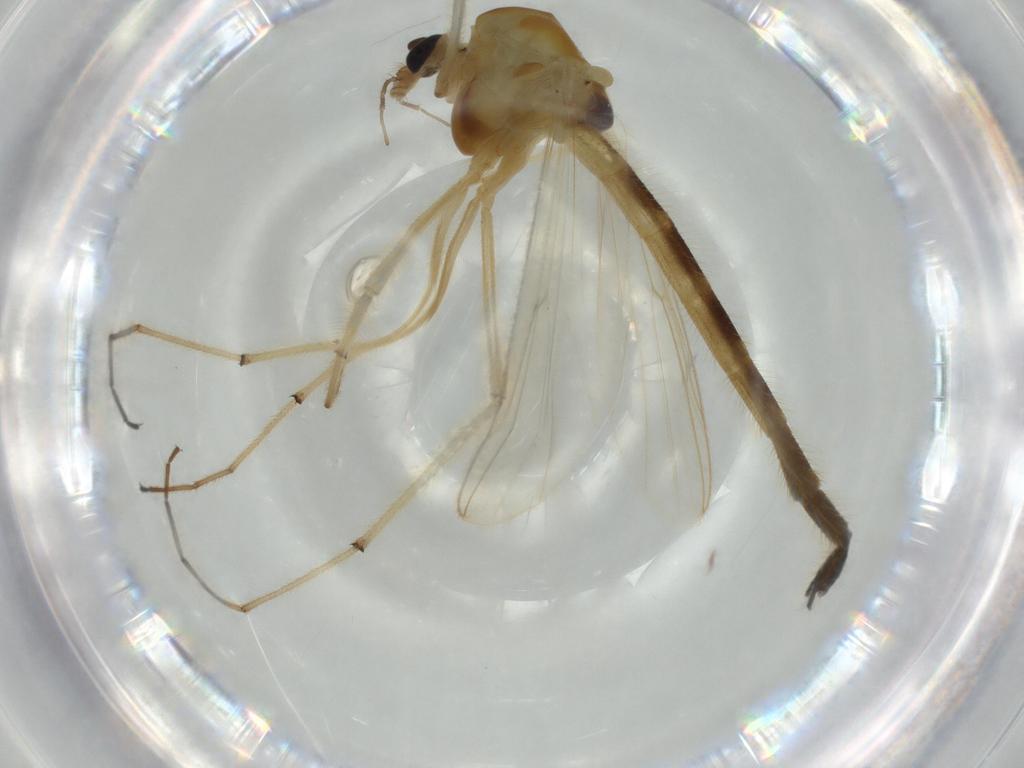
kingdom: Animalia
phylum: Arthropoda
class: Insecta
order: Diptera
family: Chironomidae
